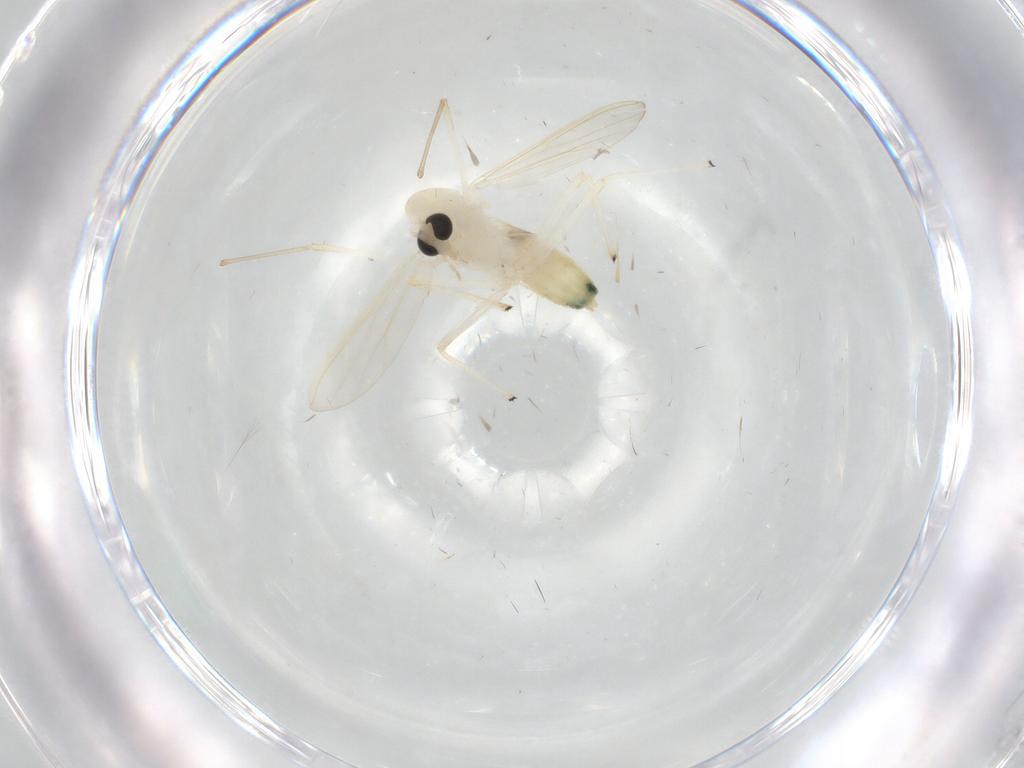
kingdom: Animalia
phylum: Arthropoda
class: Insecta
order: Diptera
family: Chironomidae
